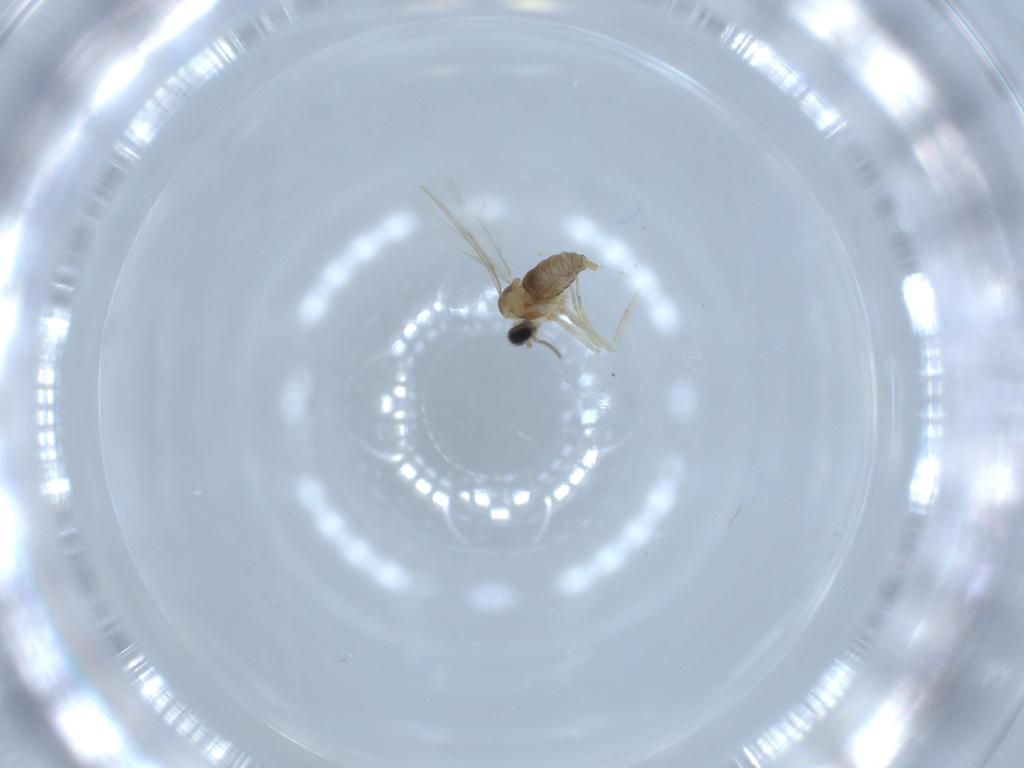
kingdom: Animalia
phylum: Arthropoda
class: Insecta
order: Diptera
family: Cecidomyiidae
